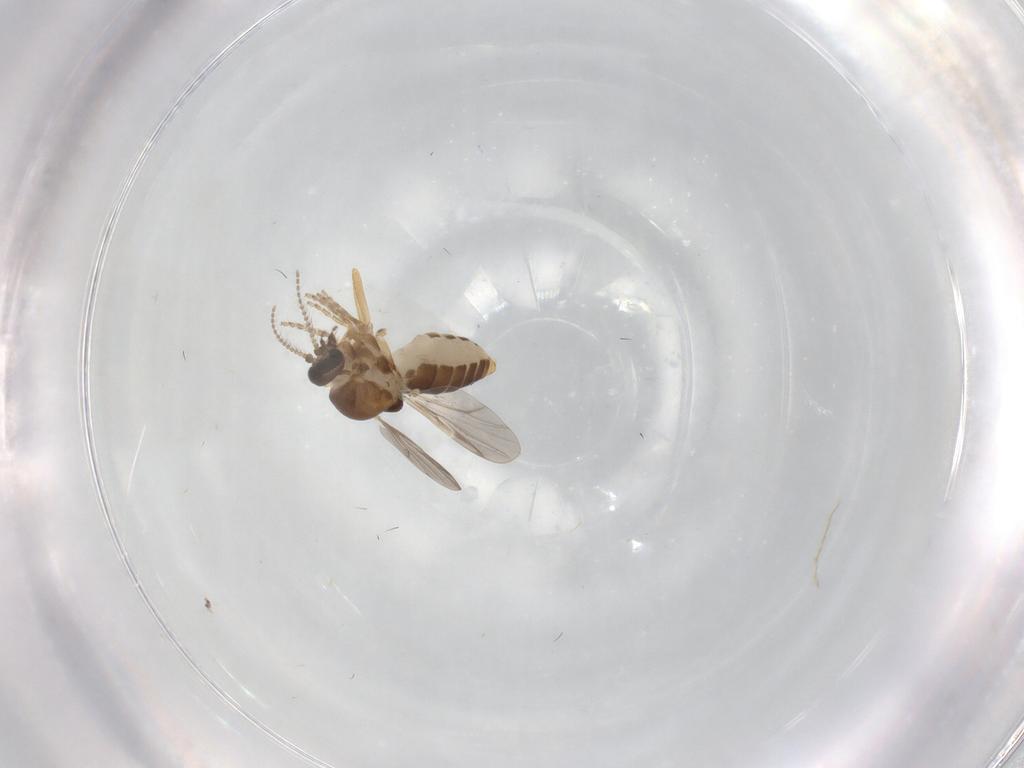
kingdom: Animalia
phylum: Arthropoda
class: Insecta
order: Diptera
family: Ceratopogonidae
